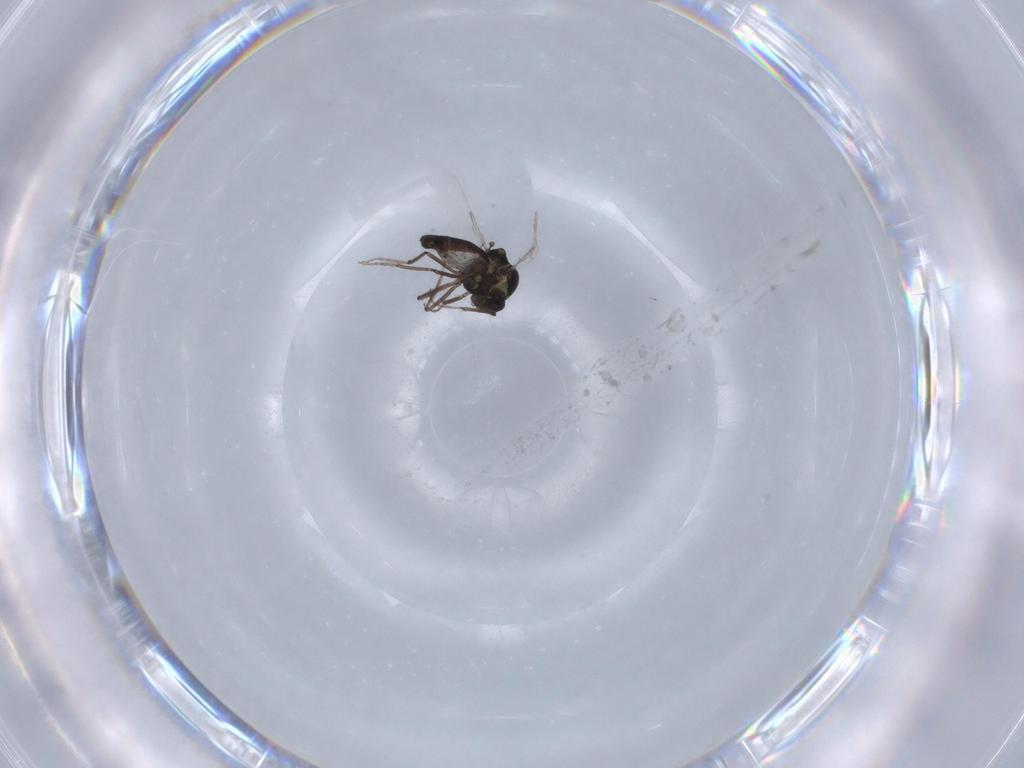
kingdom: Animalia
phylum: Arthropoda
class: Insecta
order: Diptera
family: Ceratopogonidae
